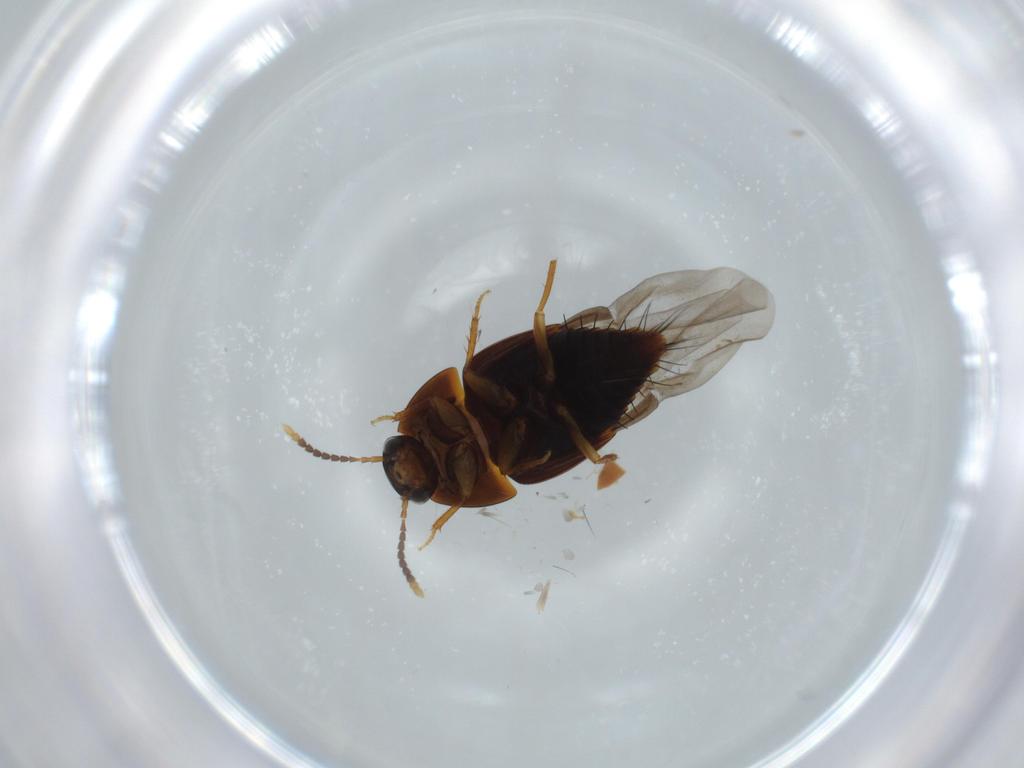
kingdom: Animalia
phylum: Arthropoda
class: Insecta
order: Coleoptera
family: Staphylinidae
